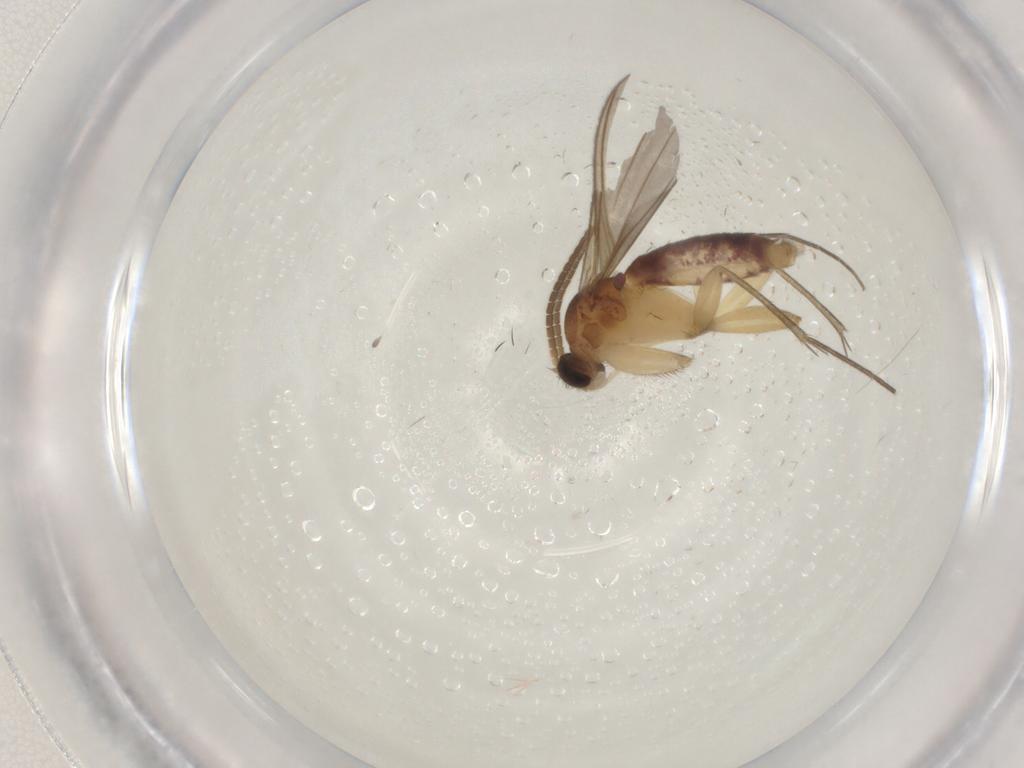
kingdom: Animalia
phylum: Arthropoda
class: Insecta
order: Diptera
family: Mycetophilidae
